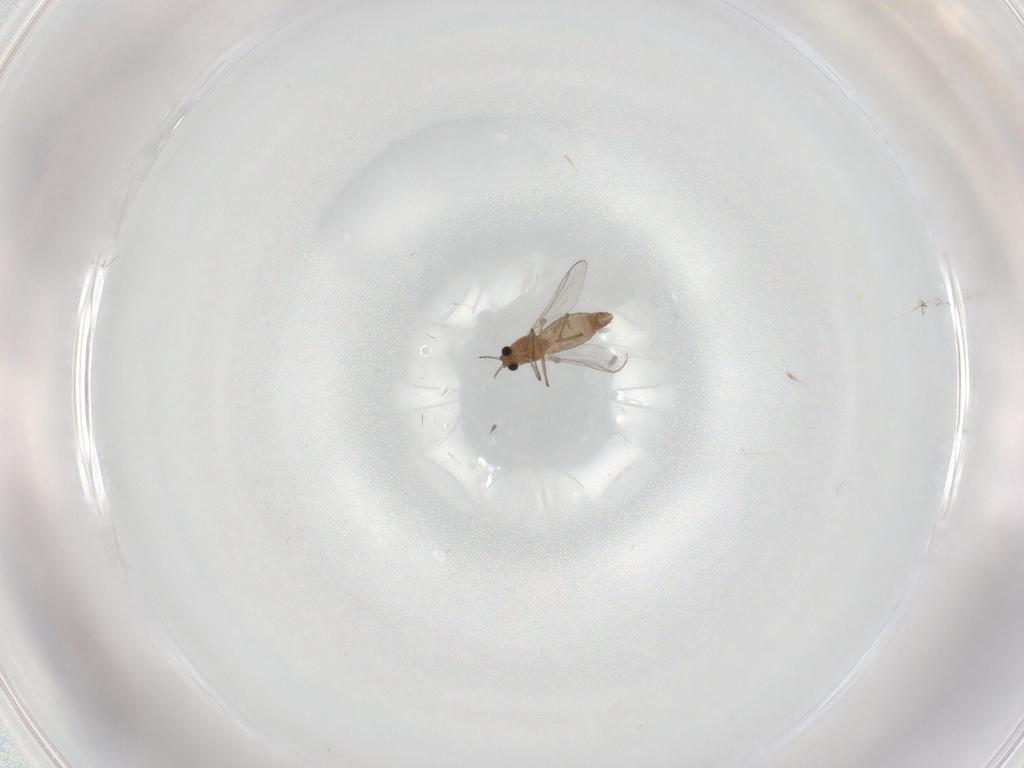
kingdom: Animalia
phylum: Arthropoda
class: Insecta
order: Diptera
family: Chironomidae
